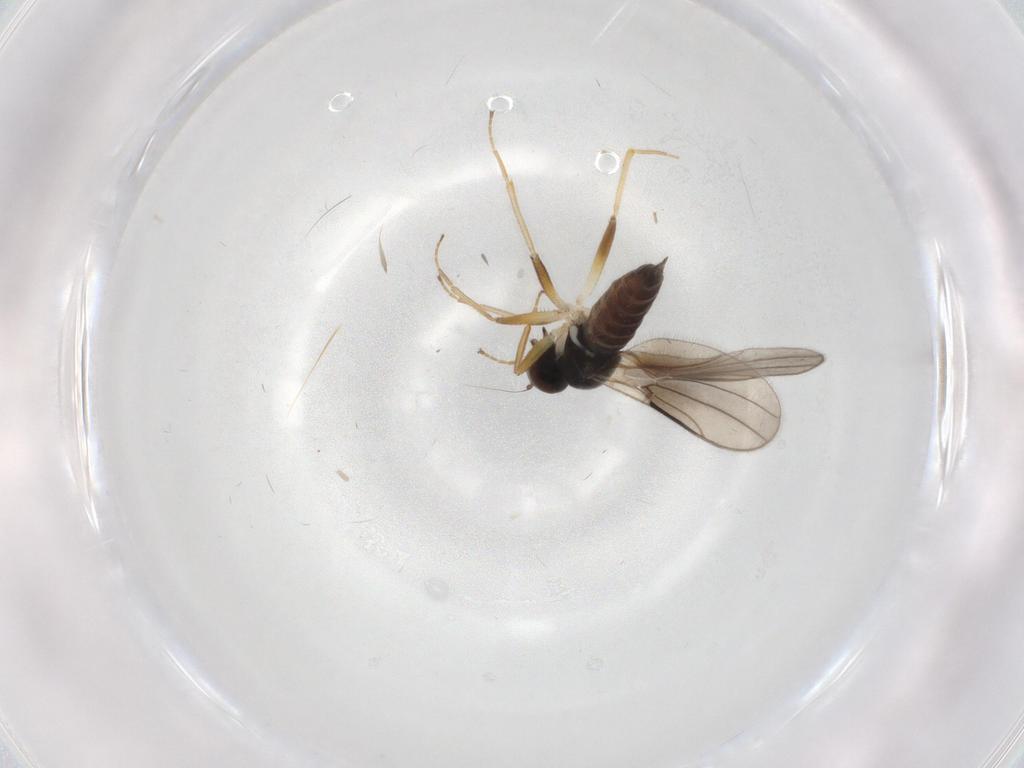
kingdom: Animalia
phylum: Arthropoda
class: Insecta
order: Diptera
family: Hybotidae
